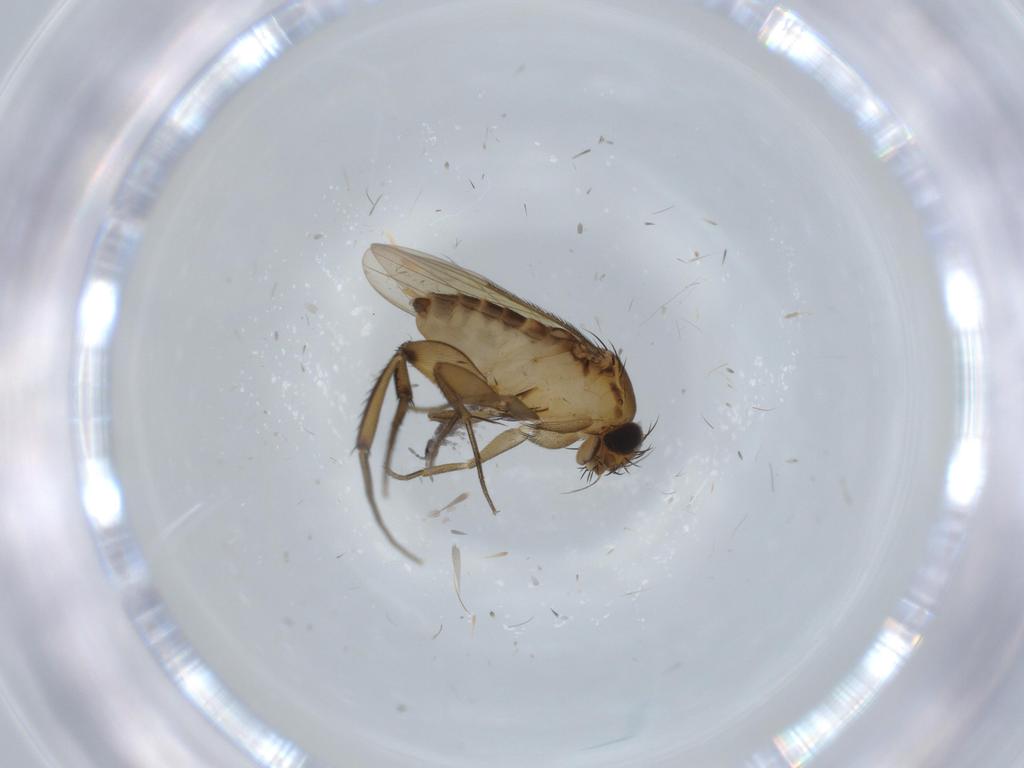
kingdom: Animalia
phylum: Arthropoda
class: Insecta
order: Diptera
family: Phoridae
